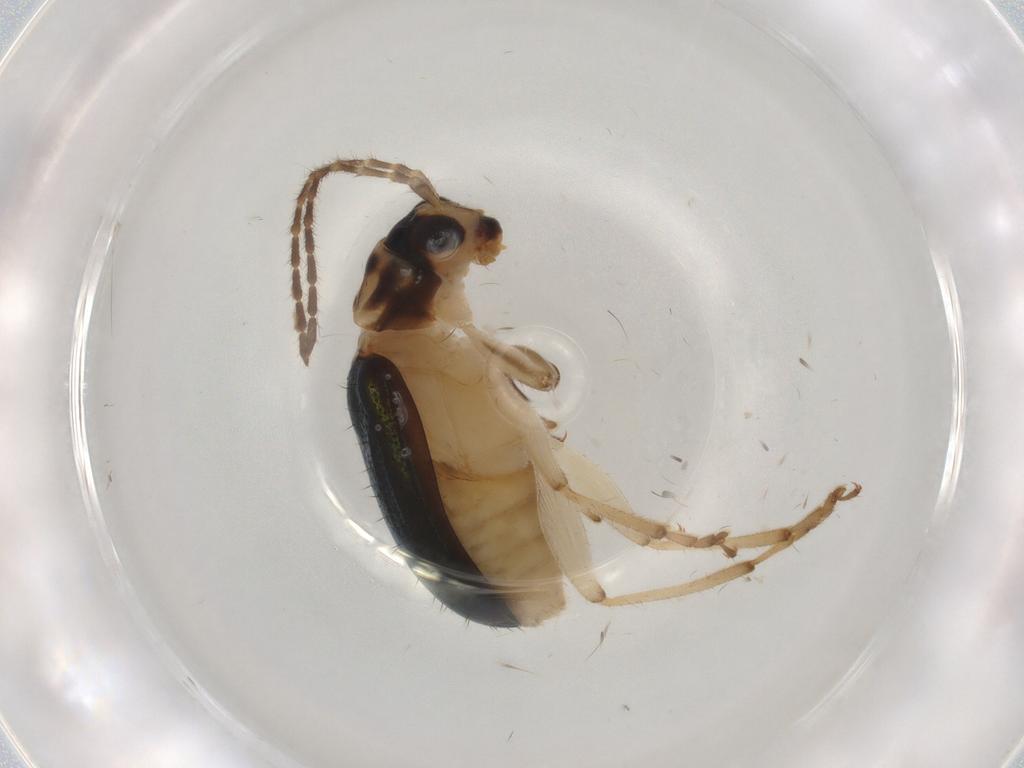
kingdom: Animalia
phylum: Arthropoda
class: Insecta
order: Coleoptera
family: Chrysomelidae
